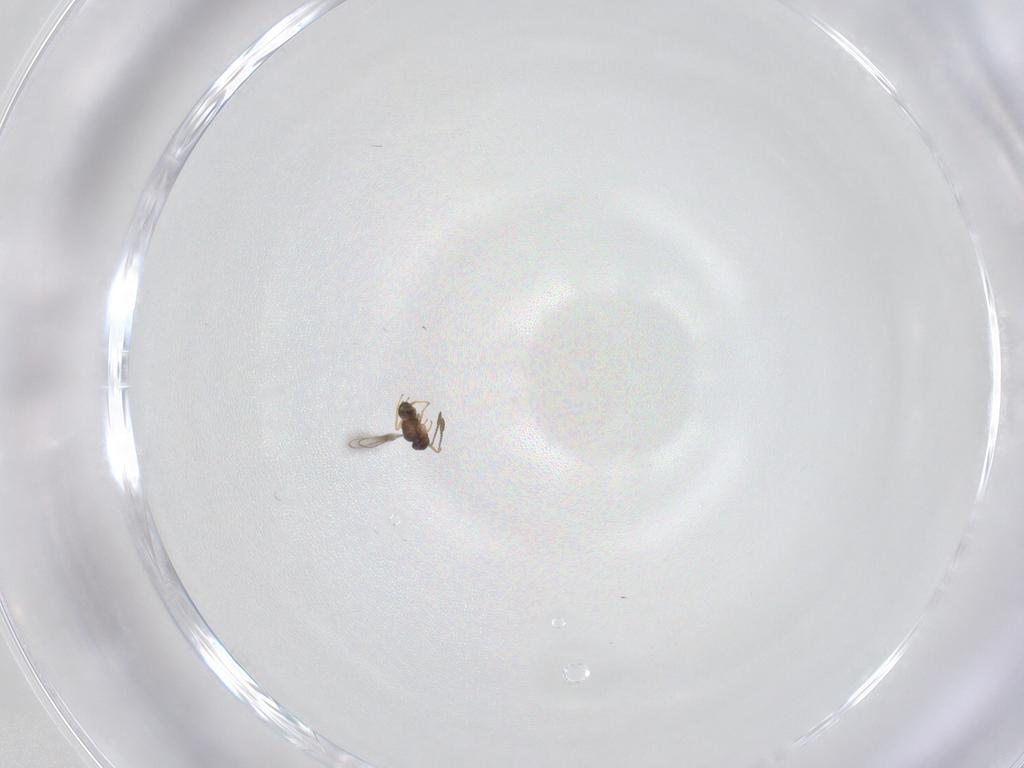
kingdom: Animalia
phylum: Arthropoda
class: Insecta
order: Hymenoptera
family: Mymaridae
